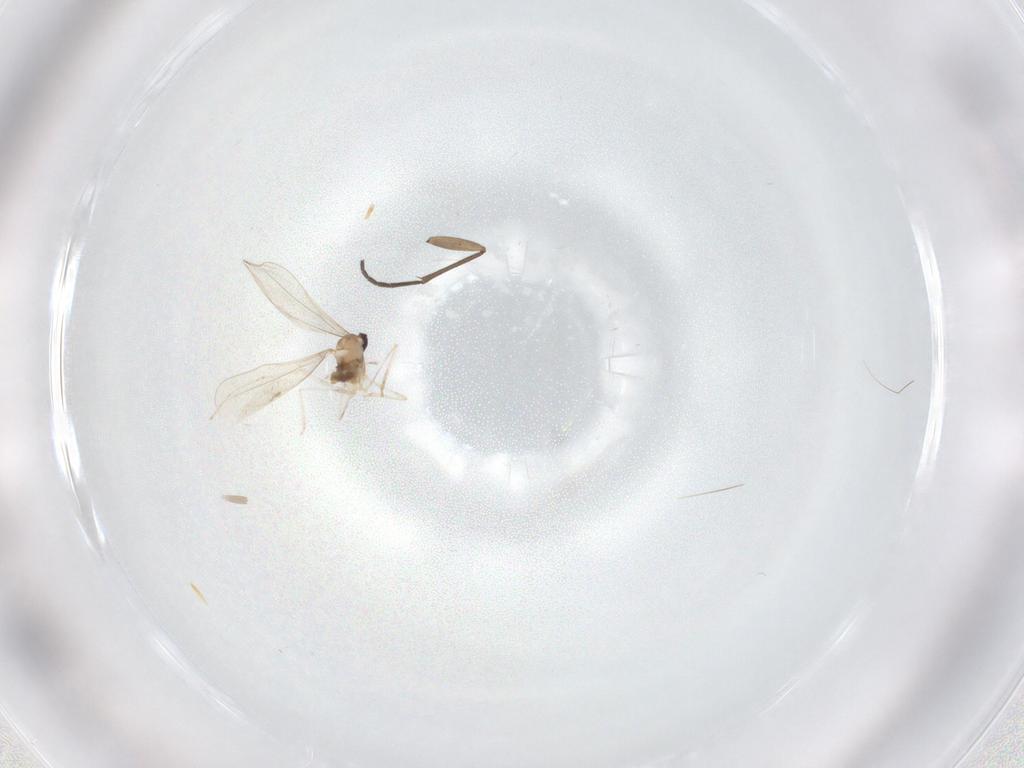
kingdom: Animalia
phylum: Arthropoda
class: Insecta
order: Diptera
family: Cecidomyiidae
